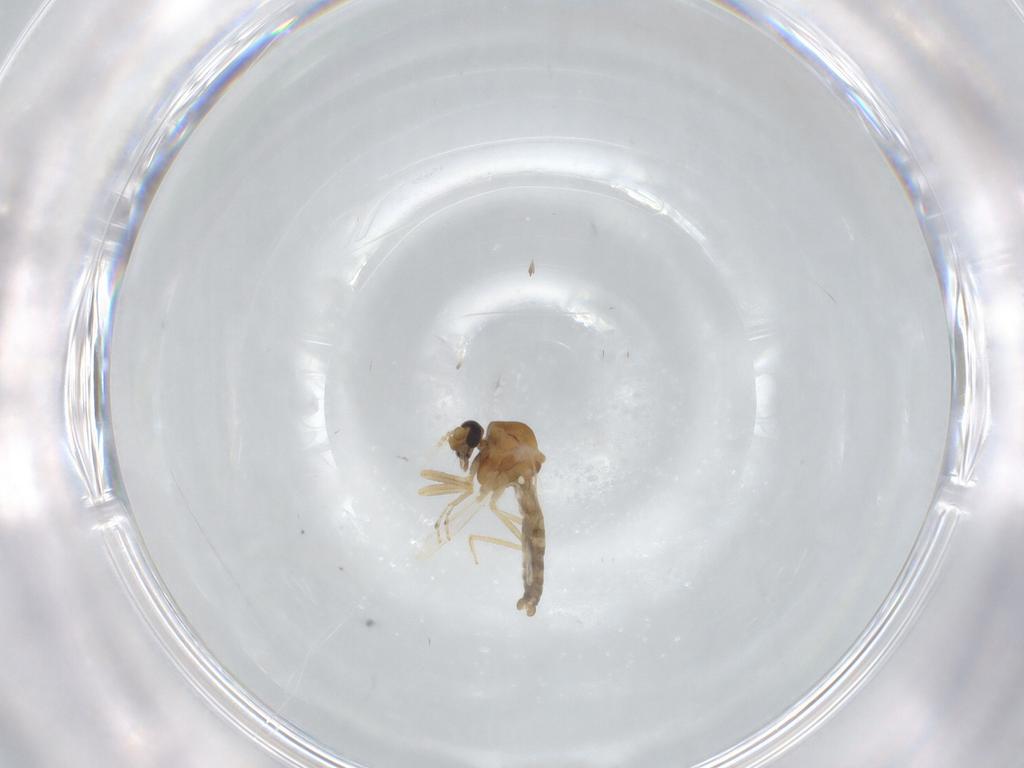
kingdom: Animalia
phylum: Arthropoda
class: Insecta
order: Diptera
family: Ceratopogonidae
